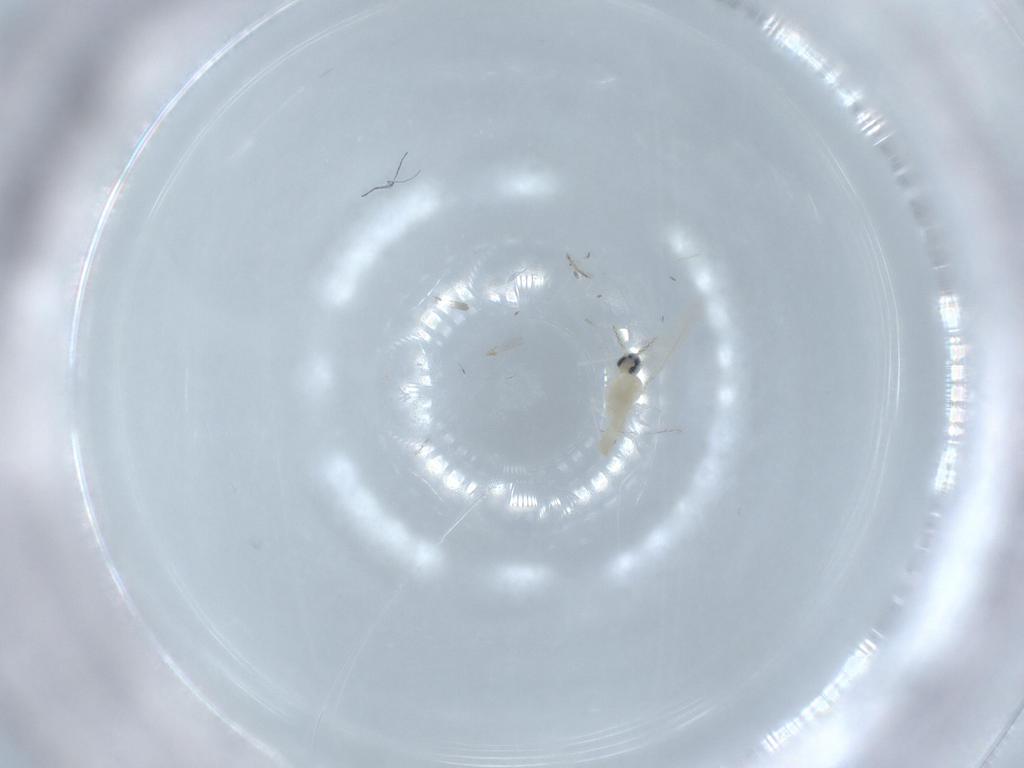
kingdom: Animalia
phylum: Arthropoda
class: Insecta
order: Diptera
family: Cecidomyiidae
